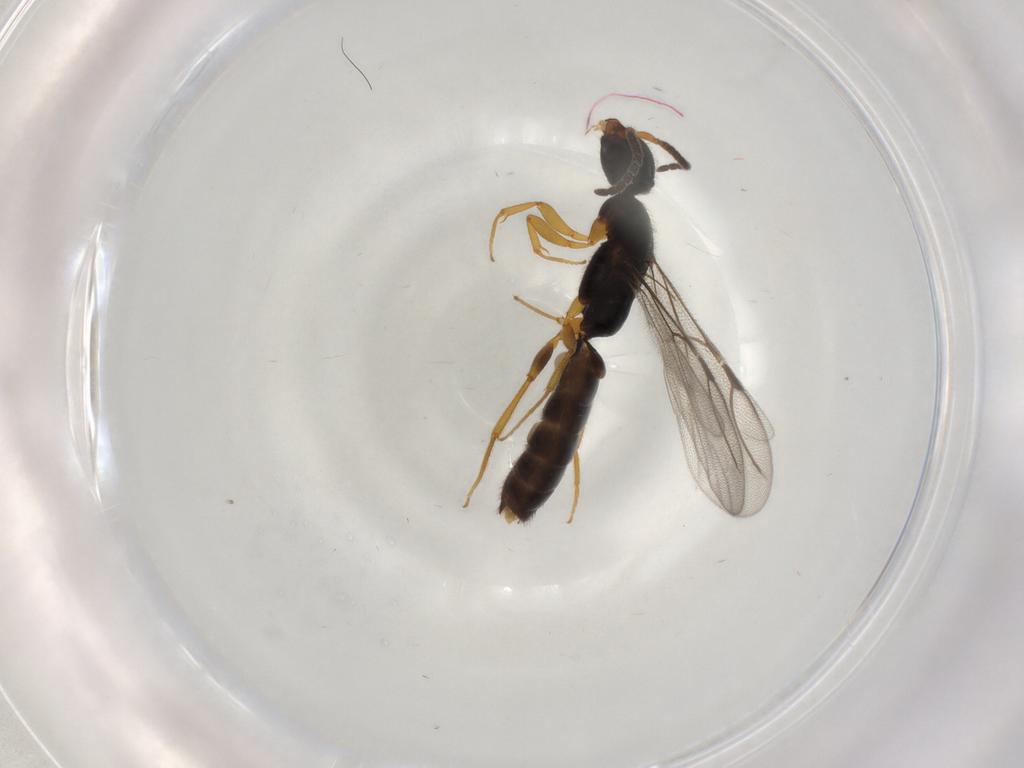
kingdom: Animalia
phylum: Arthropoda
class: Insecta
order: Hymenoptera
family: Bethylidae
